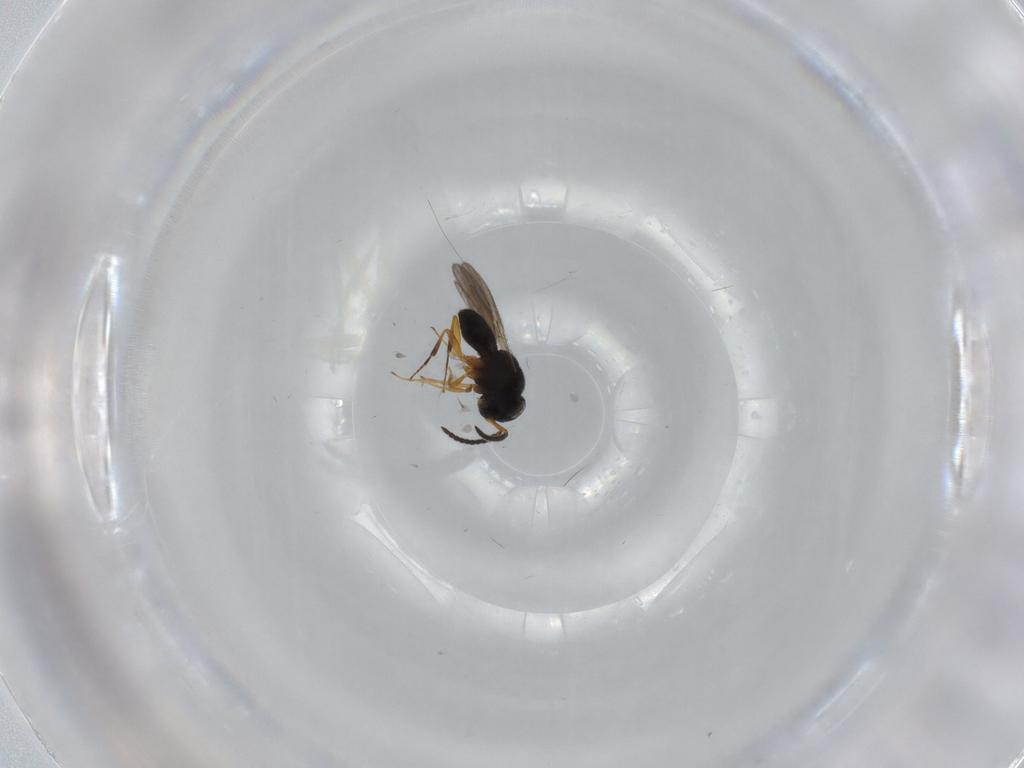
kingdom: Animalia
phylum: Arthropoda
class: Insecta
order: Hymenoptera
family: Scelionidae
